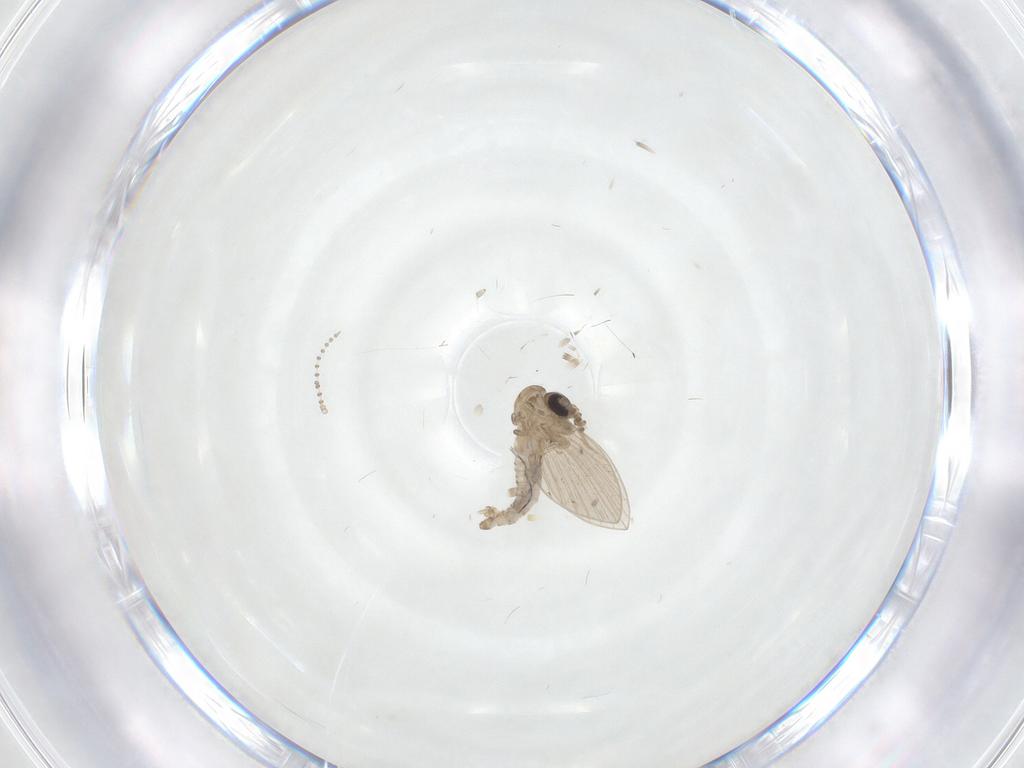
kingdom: Animalia
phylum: Arthropoda
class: Insecta
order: Diptera
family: Psychodidae
